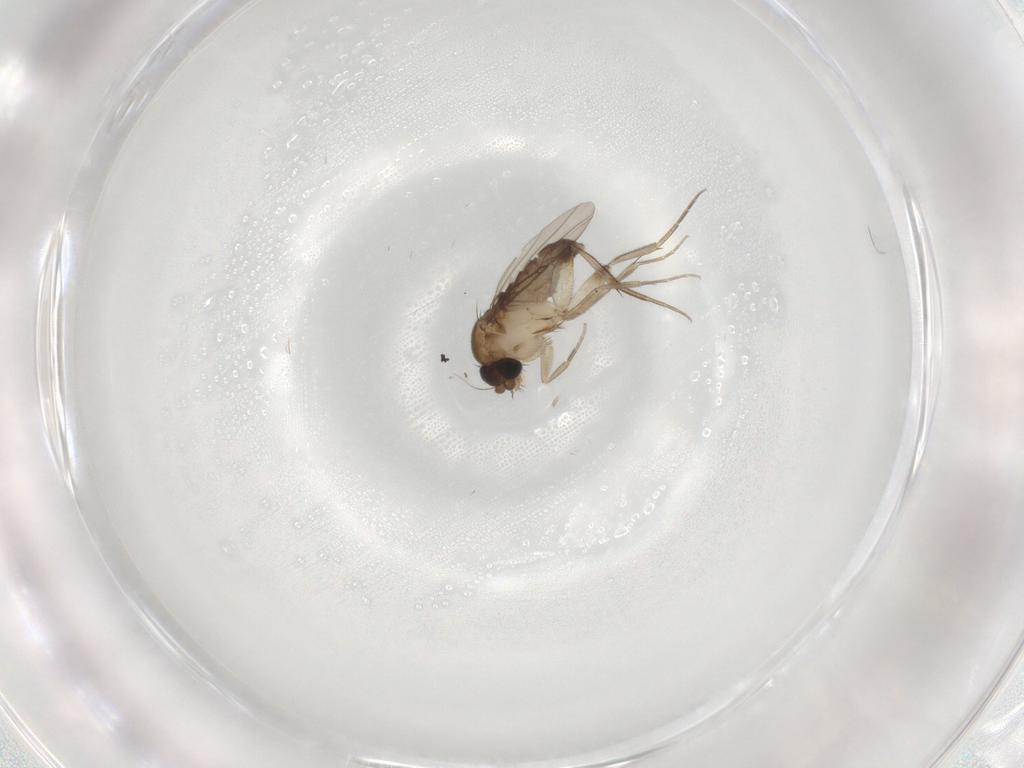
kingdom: Animalia
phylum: Arthropoda
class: Insecta
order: Diptera
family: Phoridae
